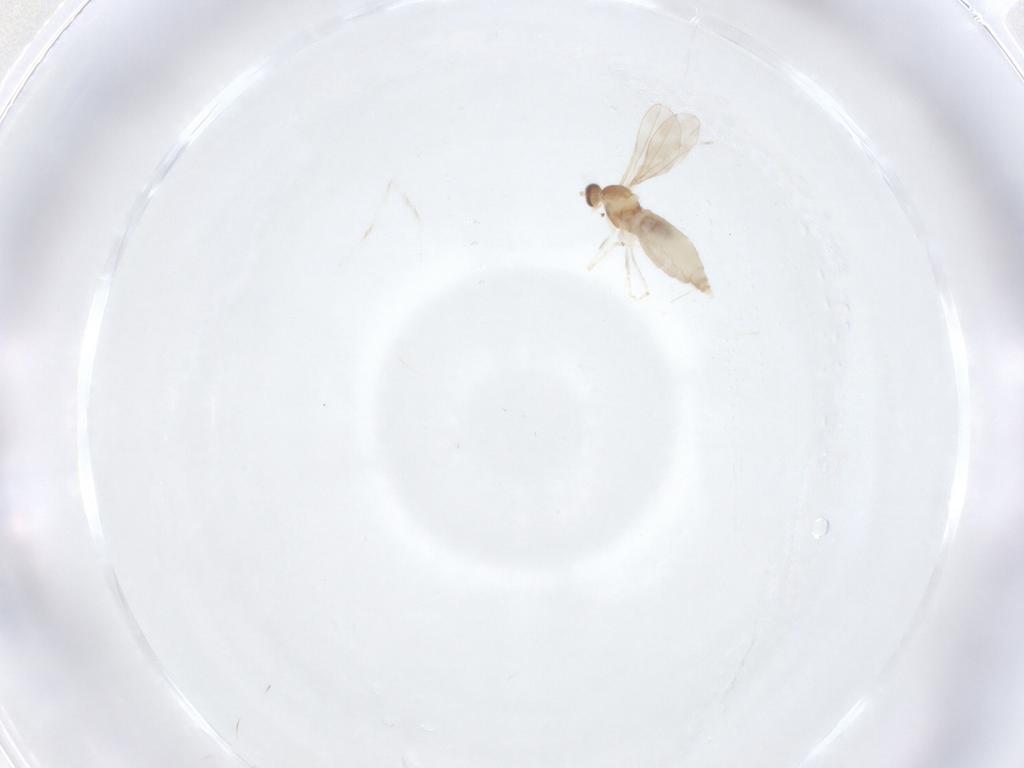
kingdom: Animalia
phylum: Arthropoda
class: Insecta
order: Diptera
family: Cecidomyiidae
